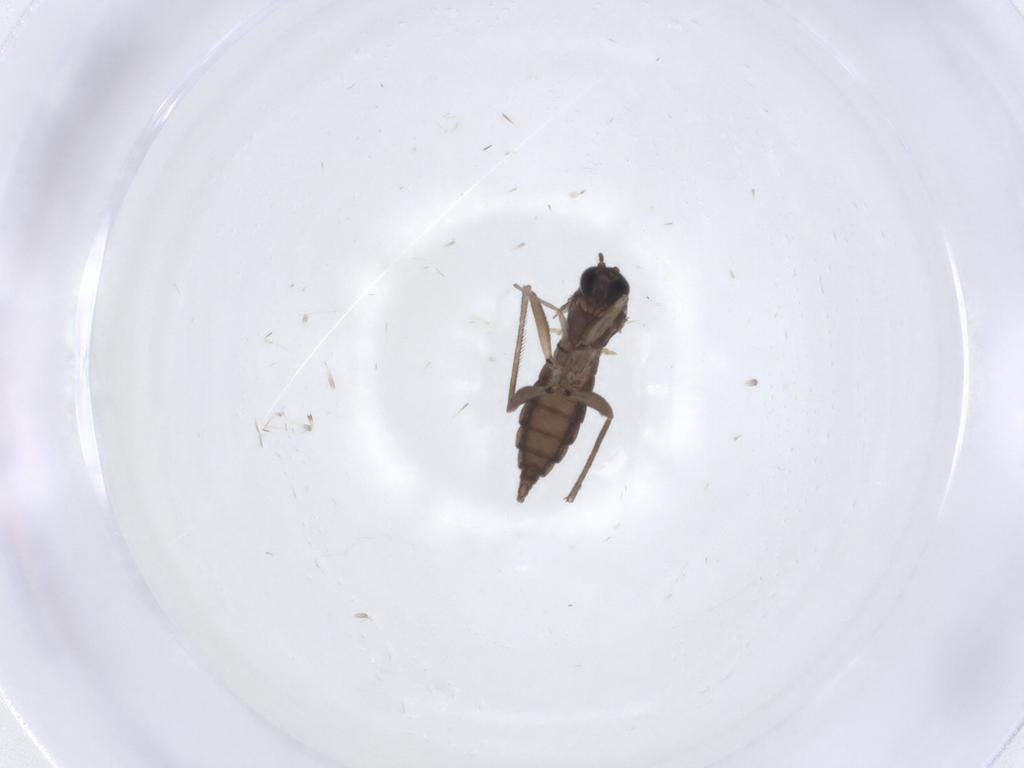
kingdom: Animalia
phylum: Arthropoda
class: Insecta
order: Diptera
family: Sciaridae
